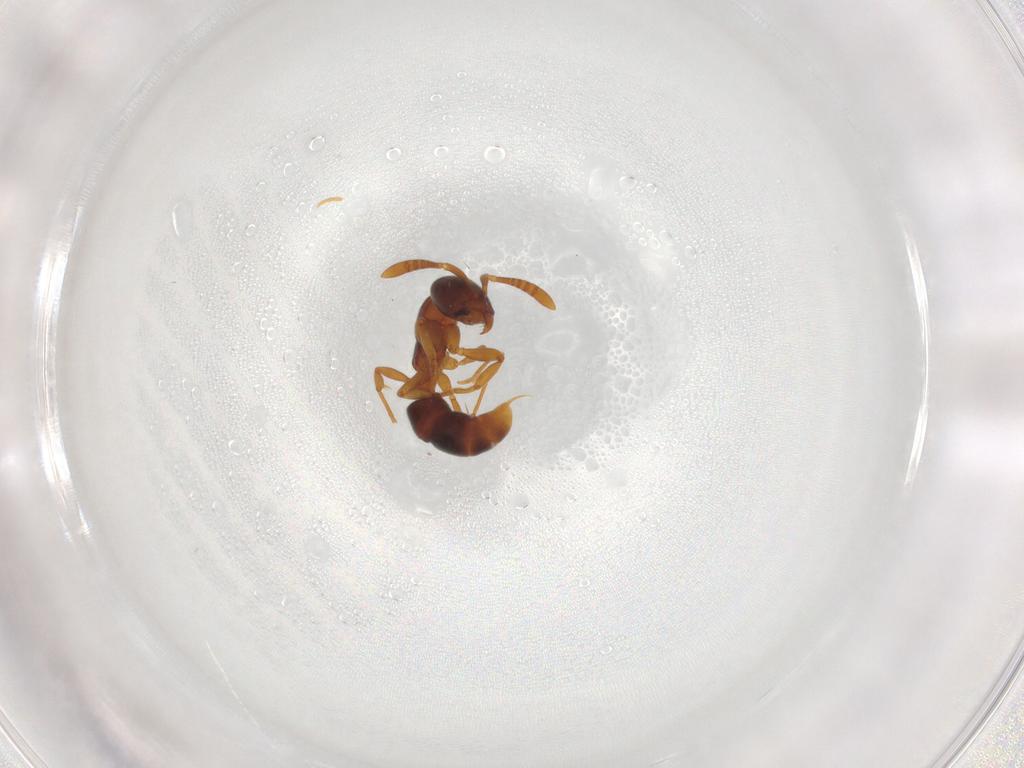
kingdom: Animalia
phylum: Arthropoda
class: Insecta
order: Hymenoptera
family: Formicidae
